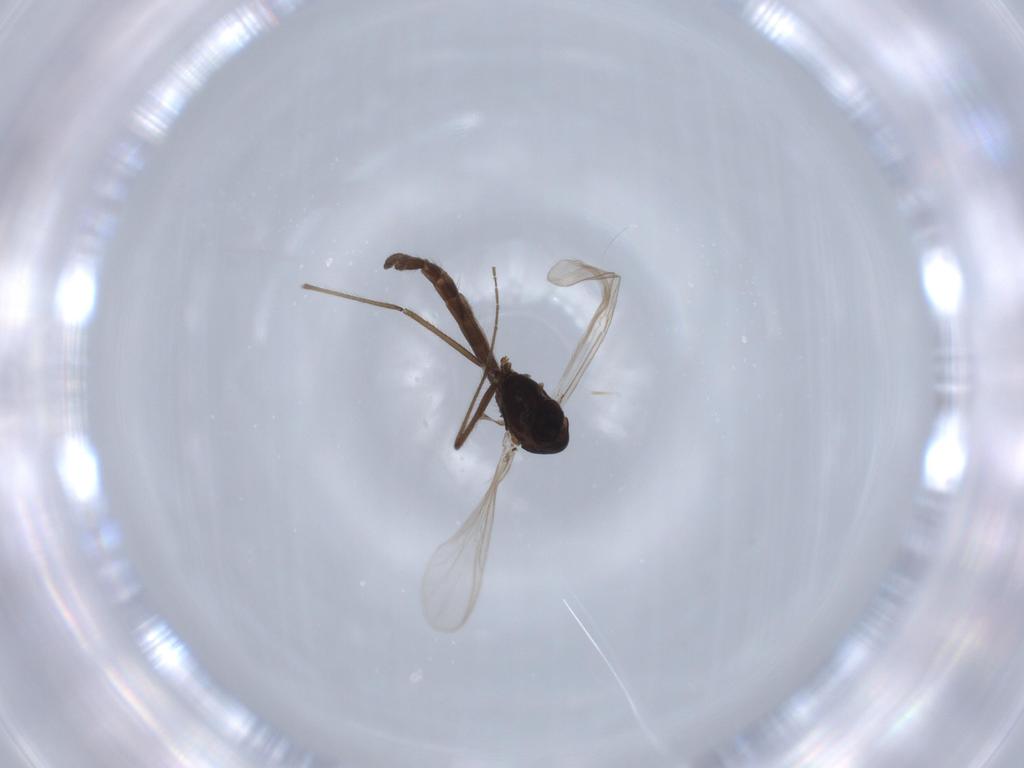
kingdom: Animalia
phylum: Arthropoda
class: Insecta
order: Diptera
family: Chironomidae
